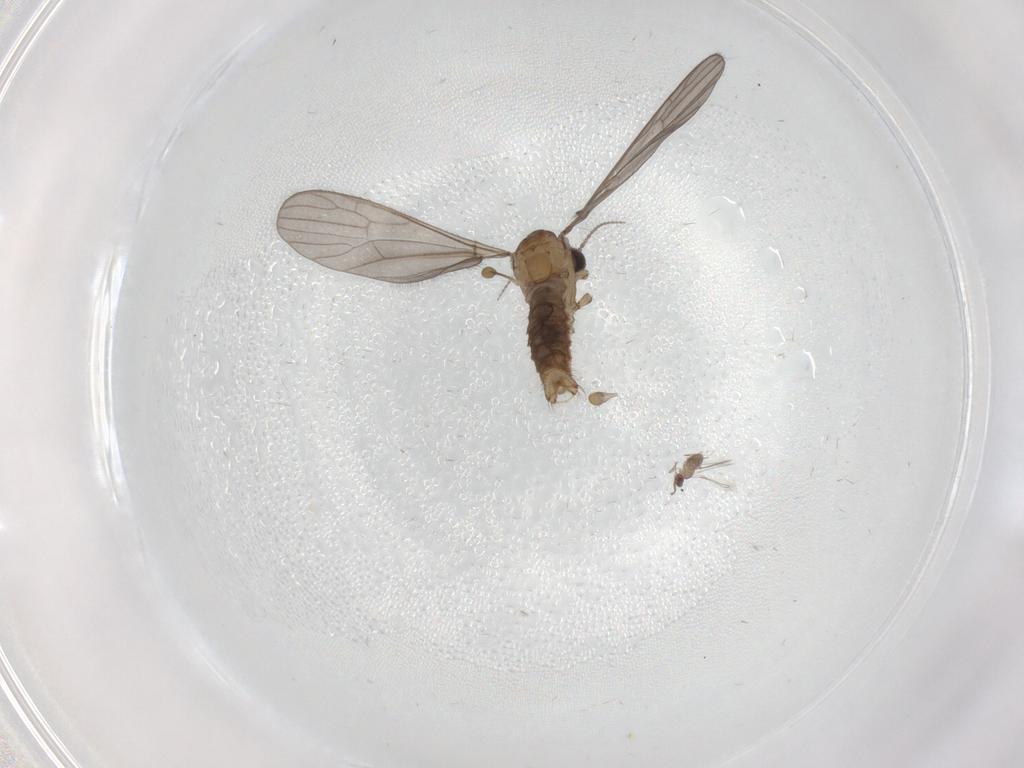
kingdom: Animalia
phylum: Arthropoda
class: Insecta
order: Diptera
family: Limoniidae
